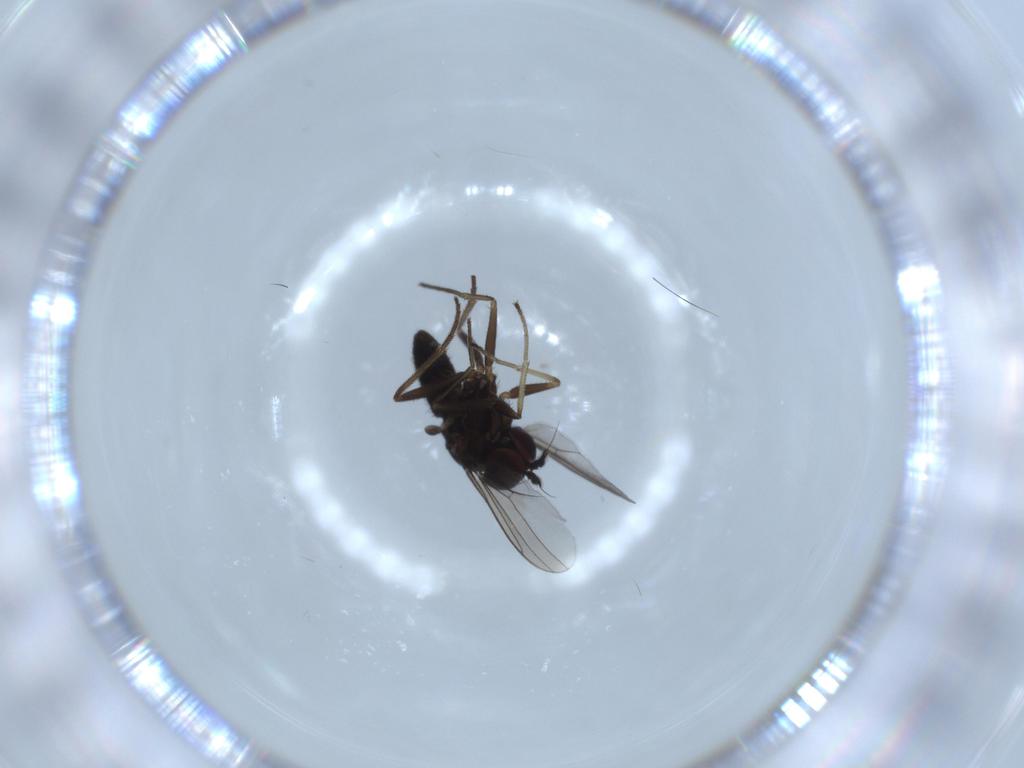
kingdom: Animalia
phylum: Arthropoda
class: Insecta
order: Diptera
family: Dolichopodidae
